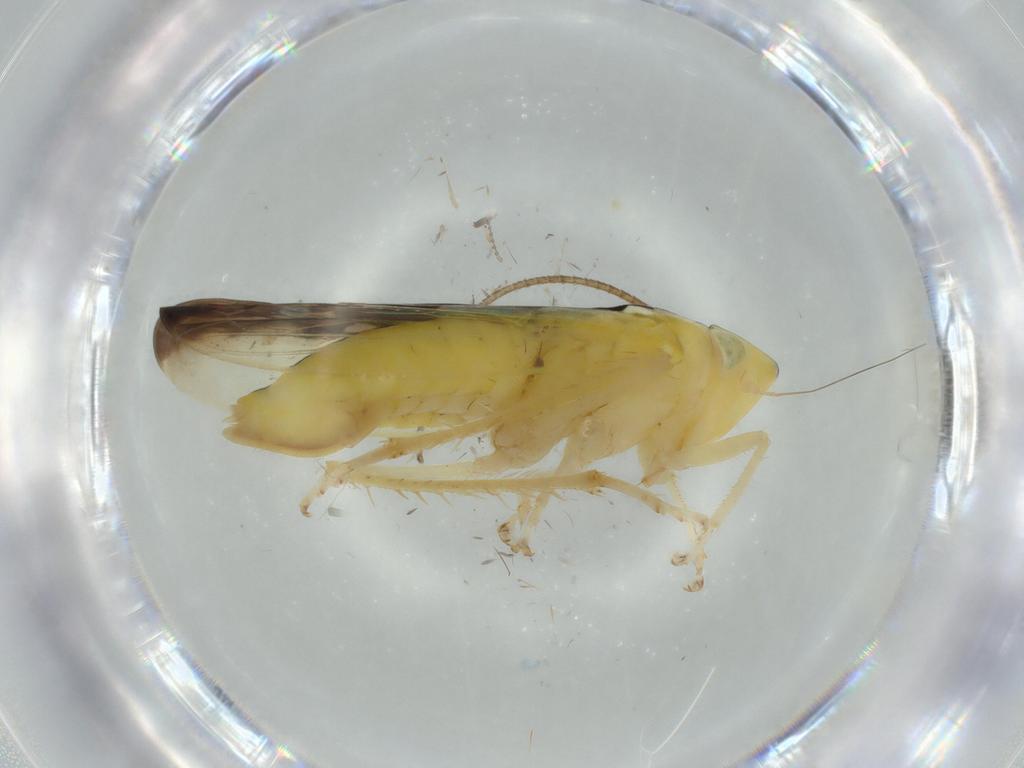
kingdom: Animalia
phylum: Arthropoda
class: Insecta
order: Hemiptera
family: Cicadellidae
